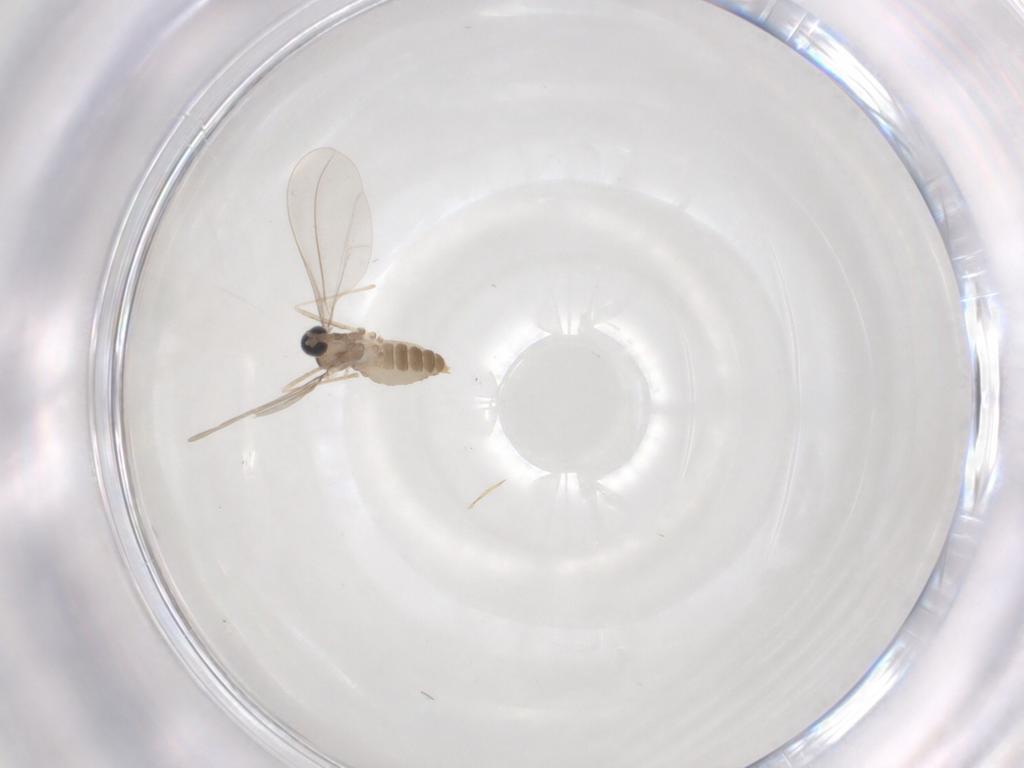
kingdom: Animalia
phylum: Arthropoda
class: Insecta
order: Diptera
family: Cecidomyiidae
